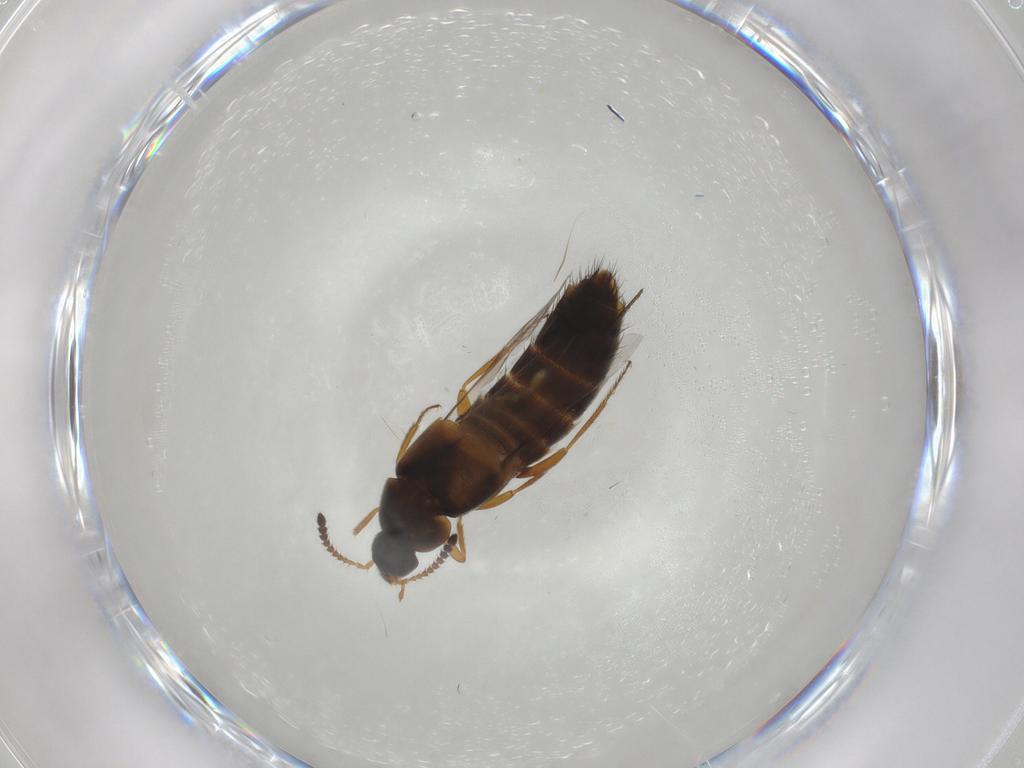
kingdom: Animalia
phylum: Arthropoda
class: Insecta
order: Coleoptera
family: Staphylinidae
